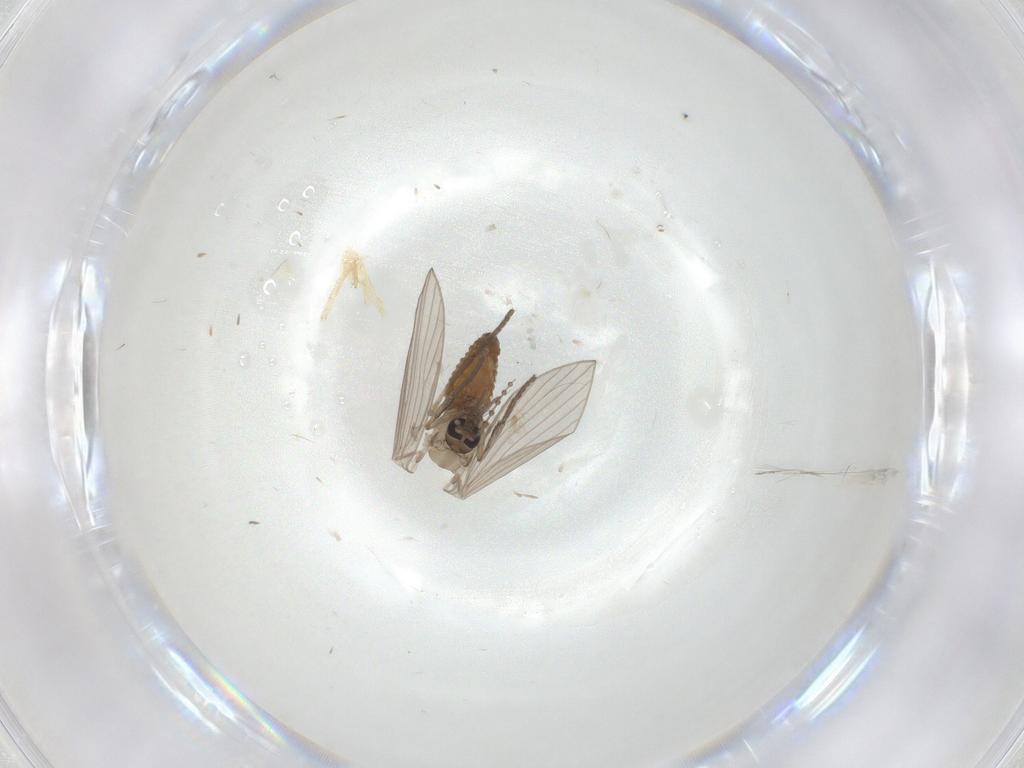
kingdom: Animalia
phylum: Arthropoda
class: Insecta
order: Diptera
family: Psychodidae
